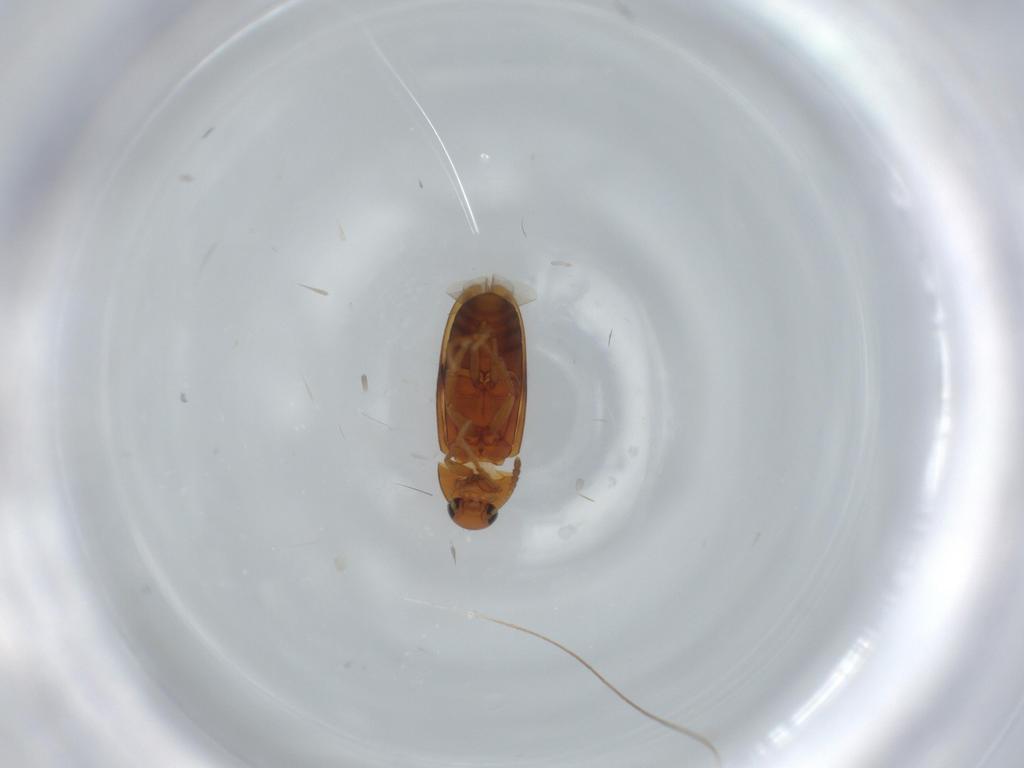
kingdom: Animalia
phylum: Arthropoda
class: Insecta
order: Coleoptera
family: Scraptiidae
